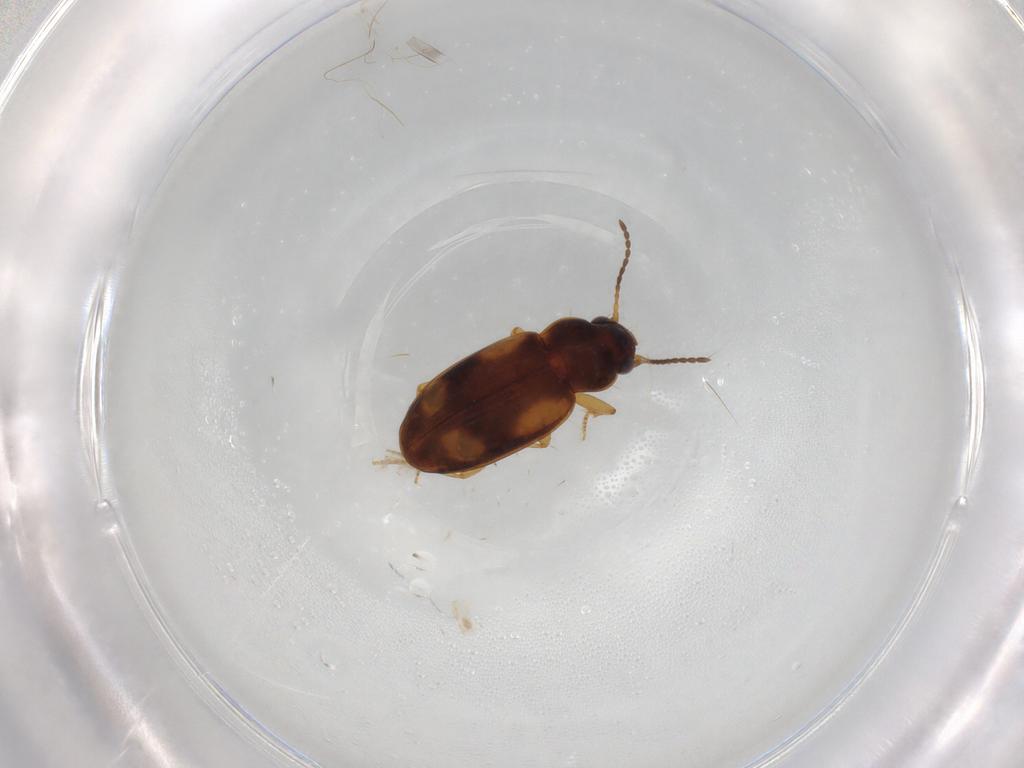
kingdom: Animalia
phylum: Arthropoda
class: Insecta
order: Coleoptera
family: Carabidae
